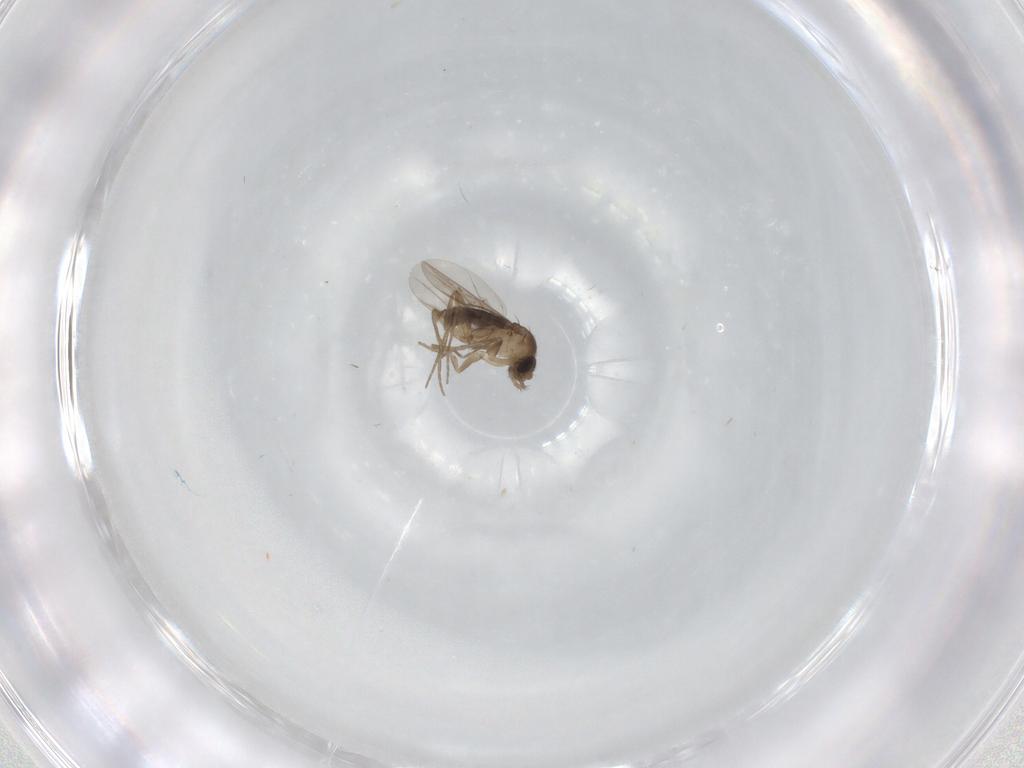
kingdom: Animalia
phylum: Arthropoda
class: Insecta
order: Diptera
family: Phoridae
